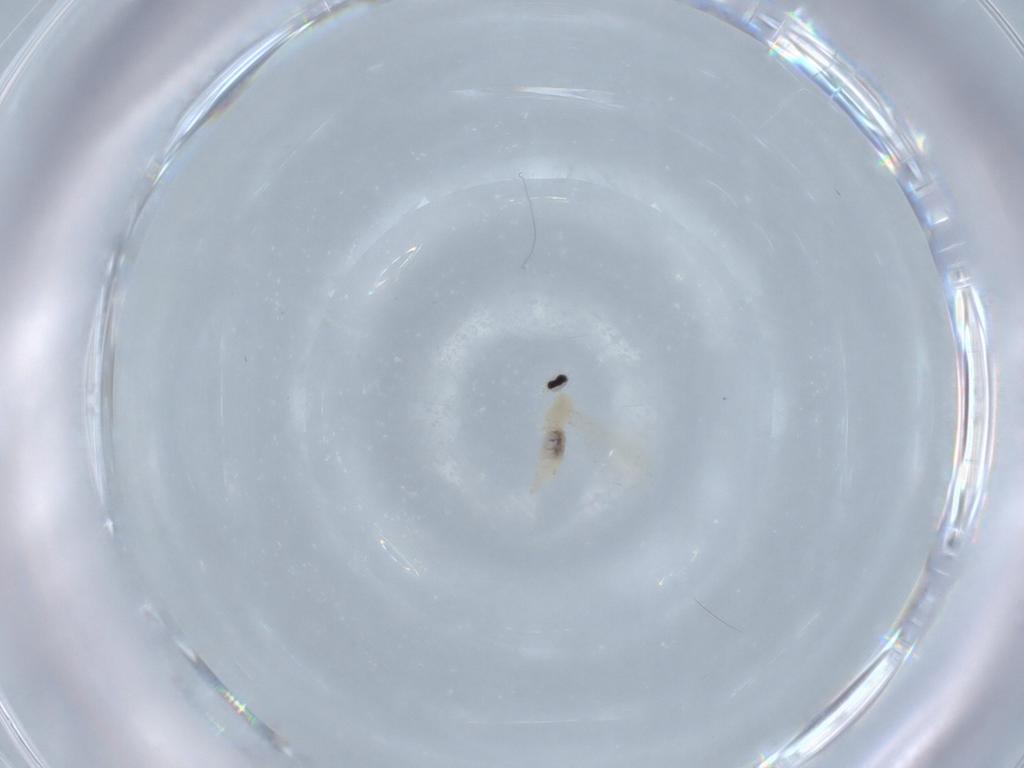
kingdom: Animalia
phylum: Arthropoda
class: Insecta
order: Diptera
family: Cecidomyiidae
